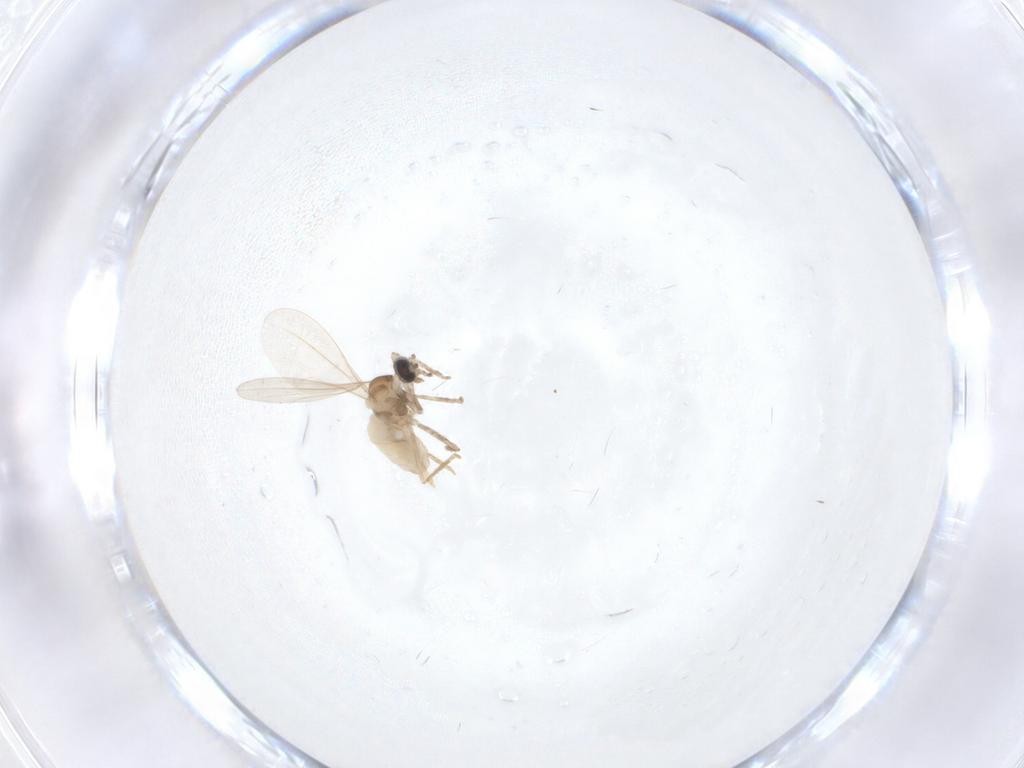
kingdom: Animalia
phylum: Arthropoda
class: Insecta
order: Diptera
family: Cecidomyiidae
